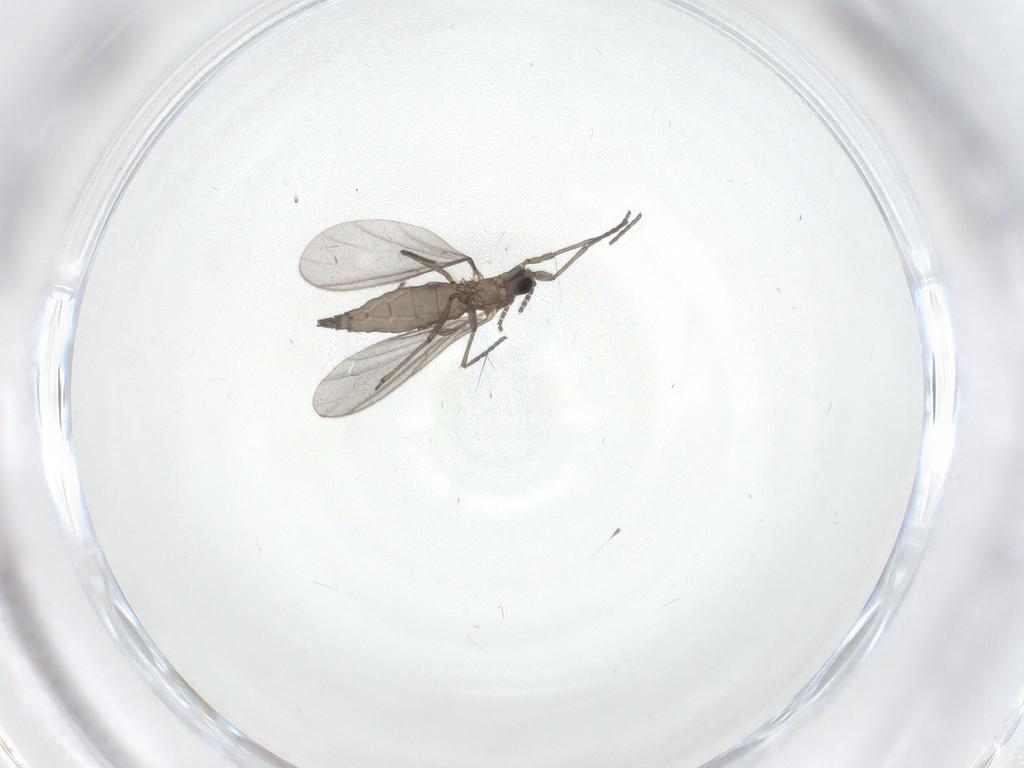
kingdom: Animalia
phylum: Arthropoda
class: Insecta
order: Diptera
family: Sciaridae
